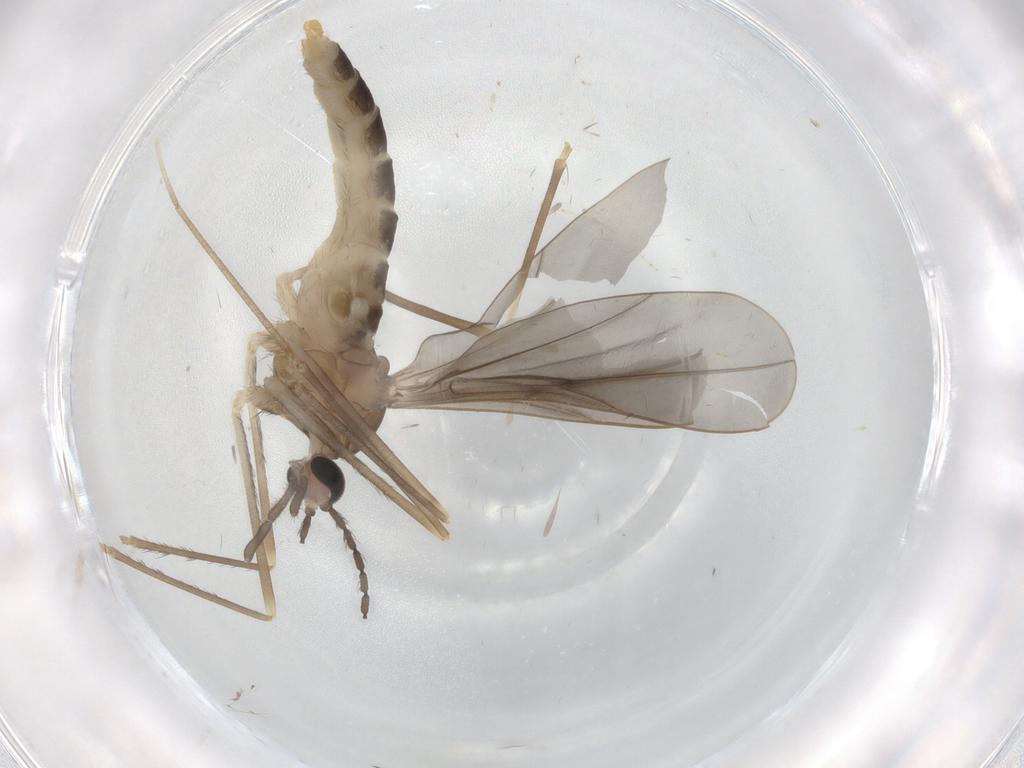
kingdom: Animalia
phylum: Arthropoda
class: Insecta
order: Diptera
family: Cecidomyiidae
